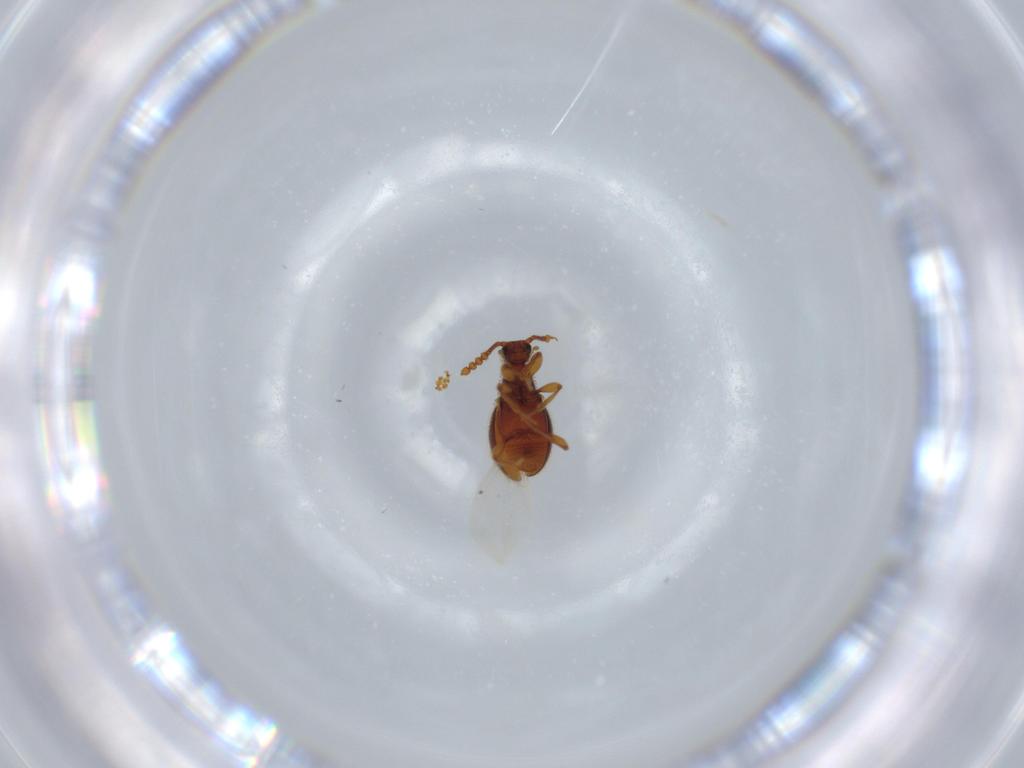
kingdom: Animalia
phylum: Arthropoda
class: Insecta
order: Coleoptera
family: Staphylinidae
